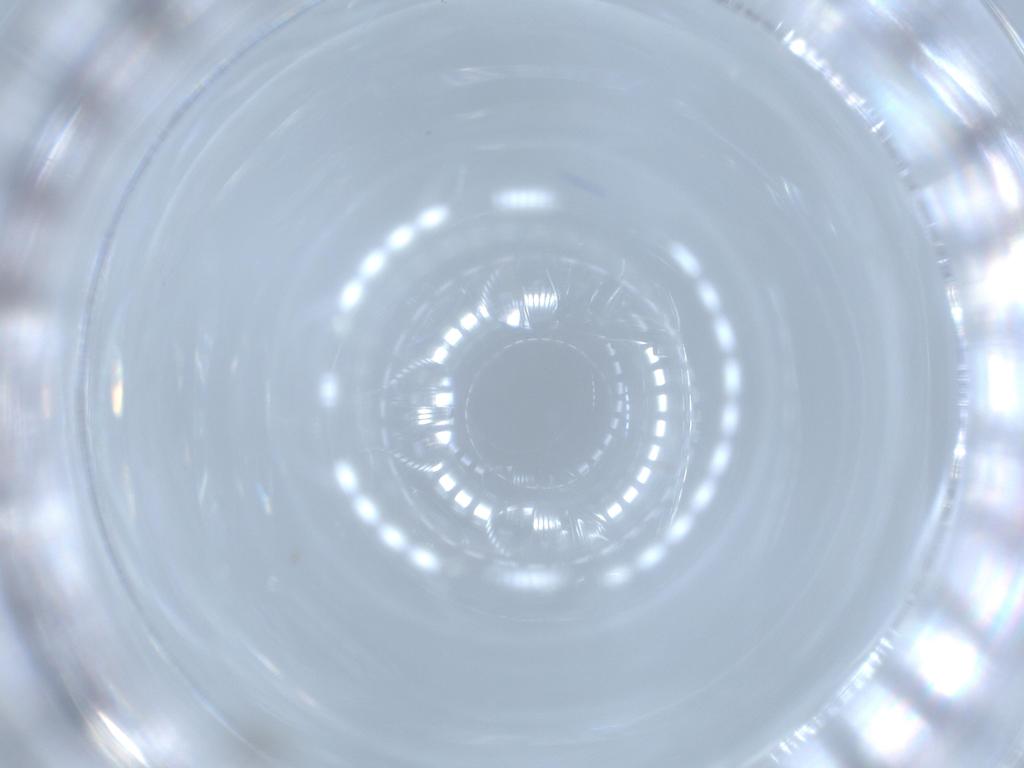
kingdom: Animalia
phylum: Arthropoda
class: Insecta
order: Diptera
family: Cecidomyiidae
